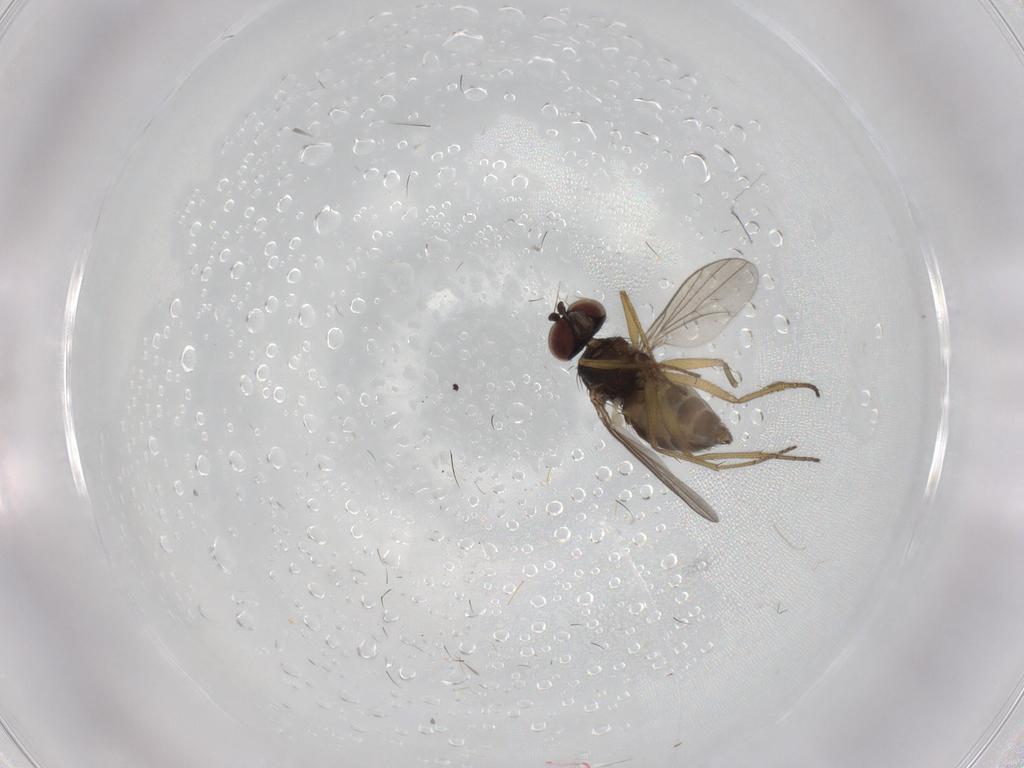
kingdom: Animalia
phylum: Arthropoda
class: Insecta
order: Diptera
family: Dolichopodidae
